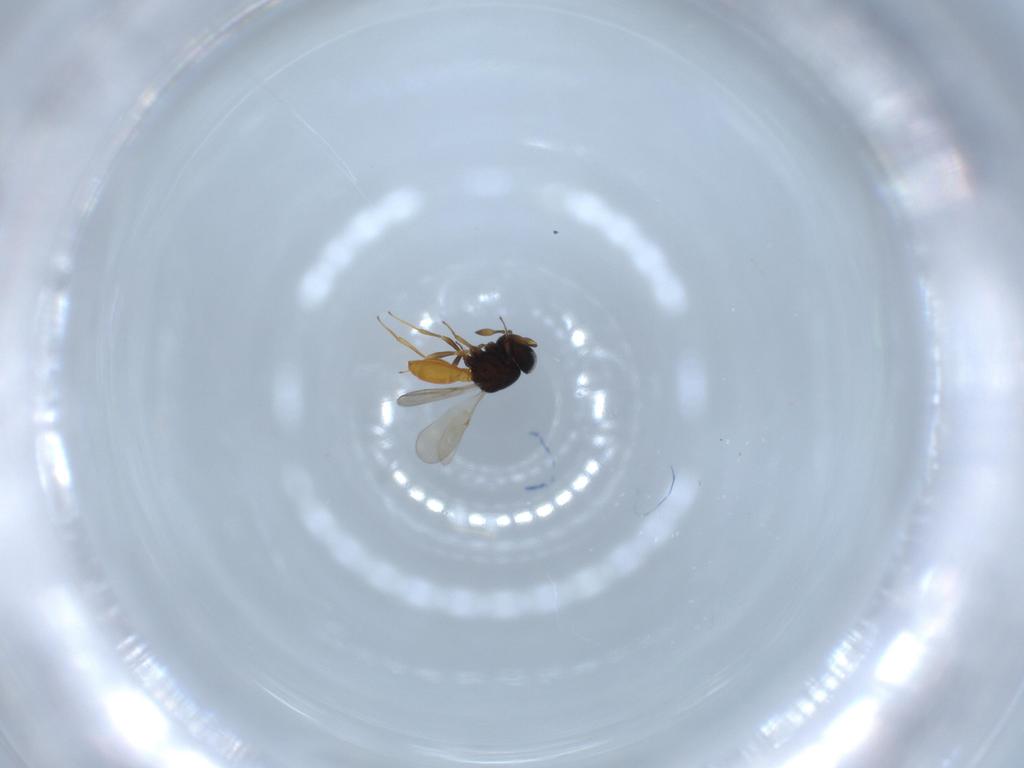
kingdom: Animalia
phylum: Arthropoda
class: Insecta
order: Hymenoptera
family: Scelionidae
